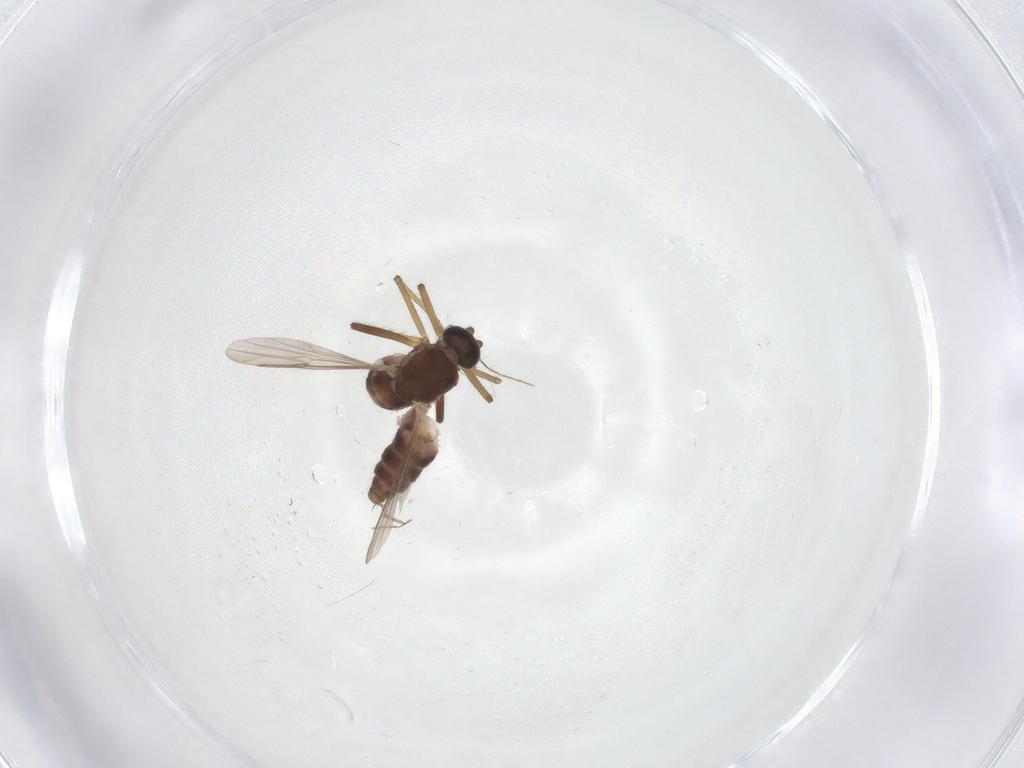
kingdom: Animalia
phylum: Arthropoda
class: Insecta
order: Diptera
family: Ceratopogonidae
